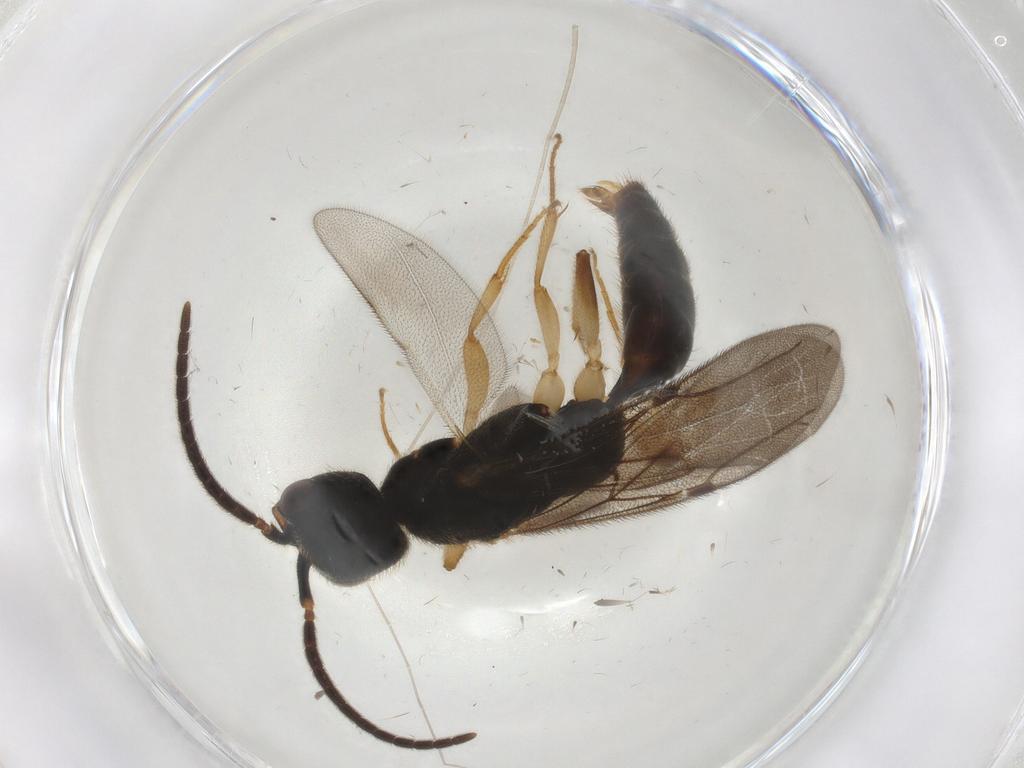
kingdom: Animalia
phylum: Arthropoda
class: Insecta
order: Hymenoptera
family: Bethylidae
